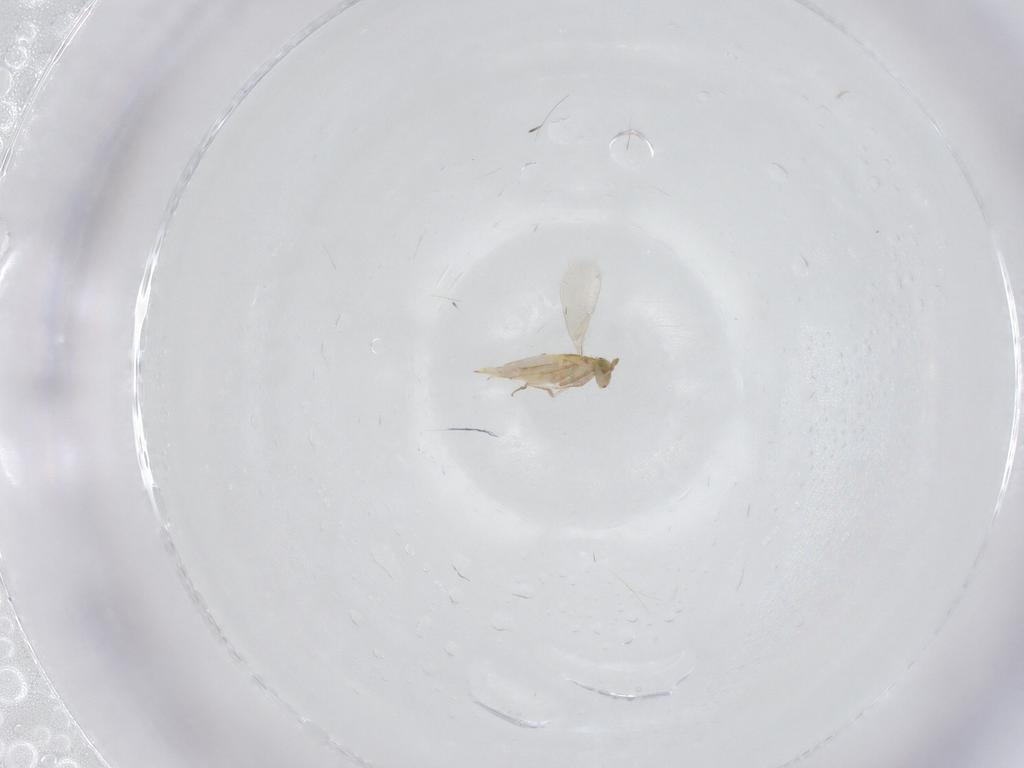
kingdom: Animalia
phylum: Arthropoda
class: Insecta
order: Hymenoptera
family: Aphelinidae
